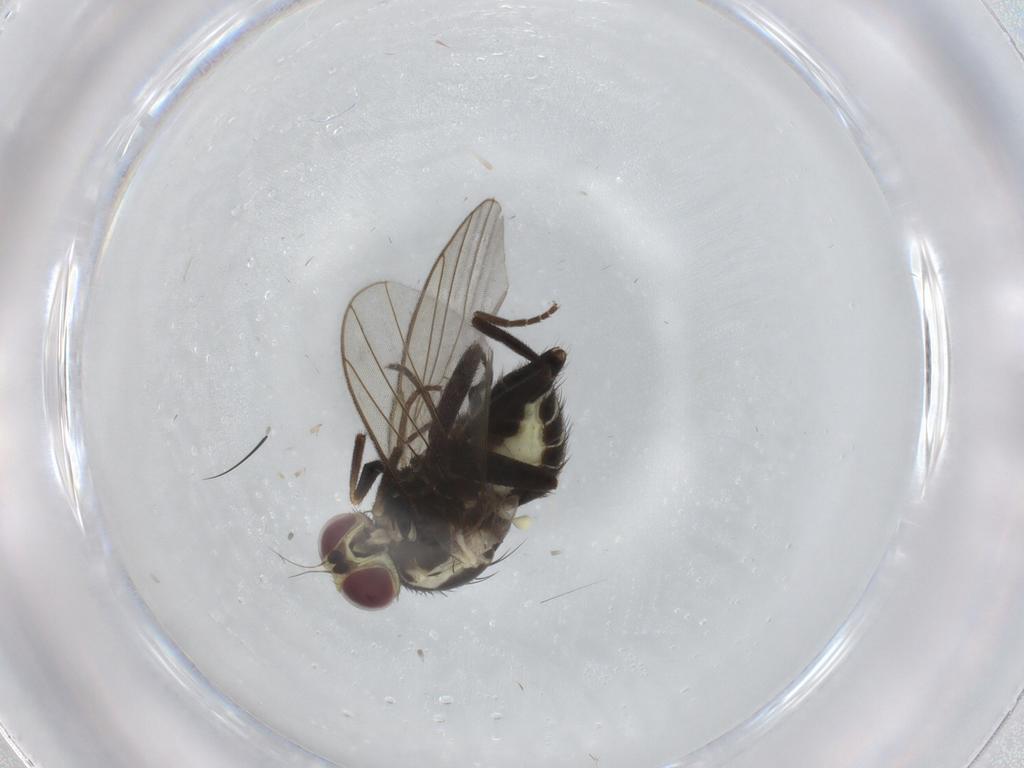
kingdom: Animalia
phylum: Arthropoda
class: Insecta
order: Diptera
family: Agromyzidae
